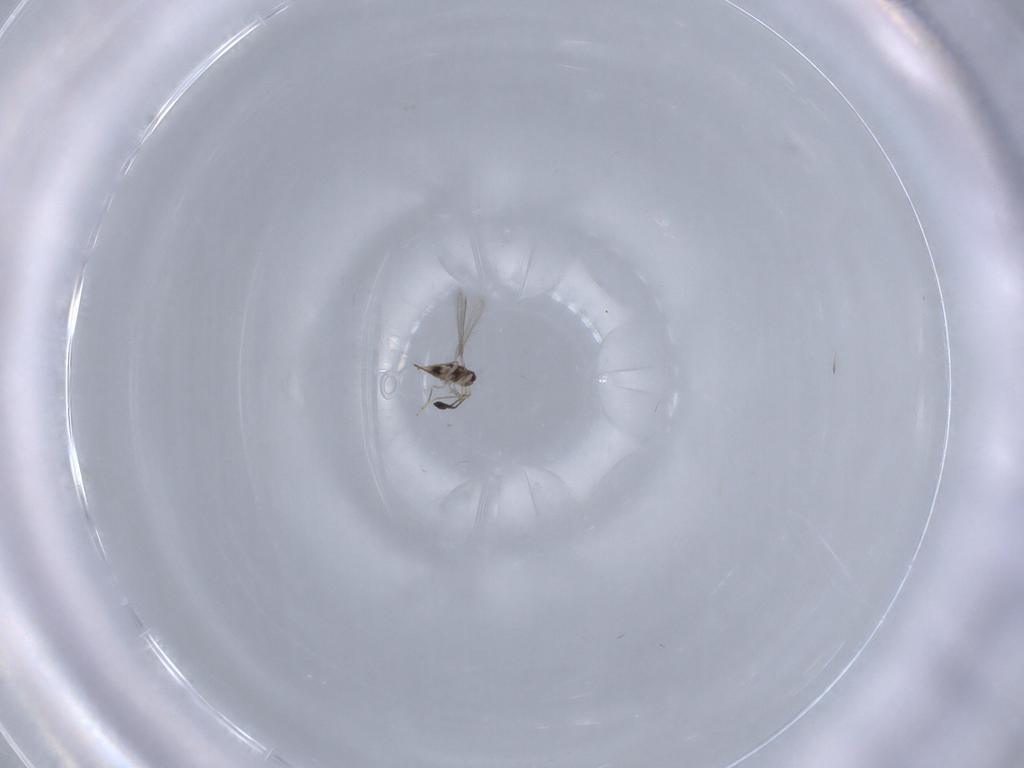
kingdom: Animalia
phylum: Arthropoda
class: Insecta
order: Hymenoptera
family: Mymaridae
